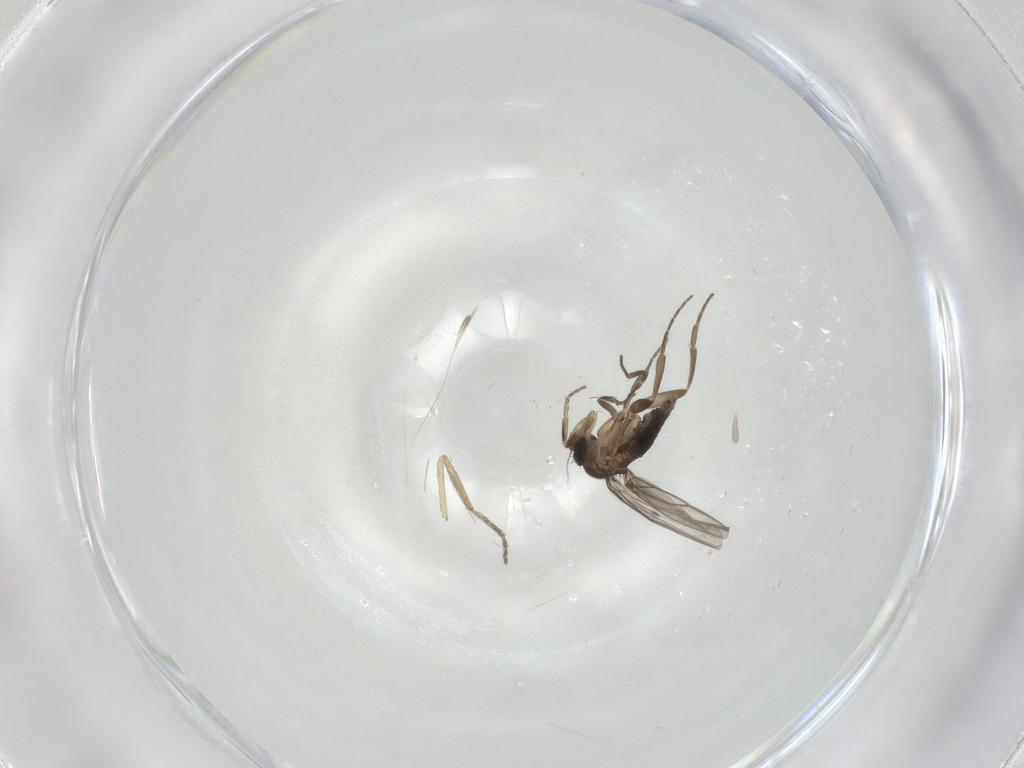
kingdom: Animalia
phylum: Arthropoda
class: Insecta
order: Diptera
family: Ceratopogonidae
